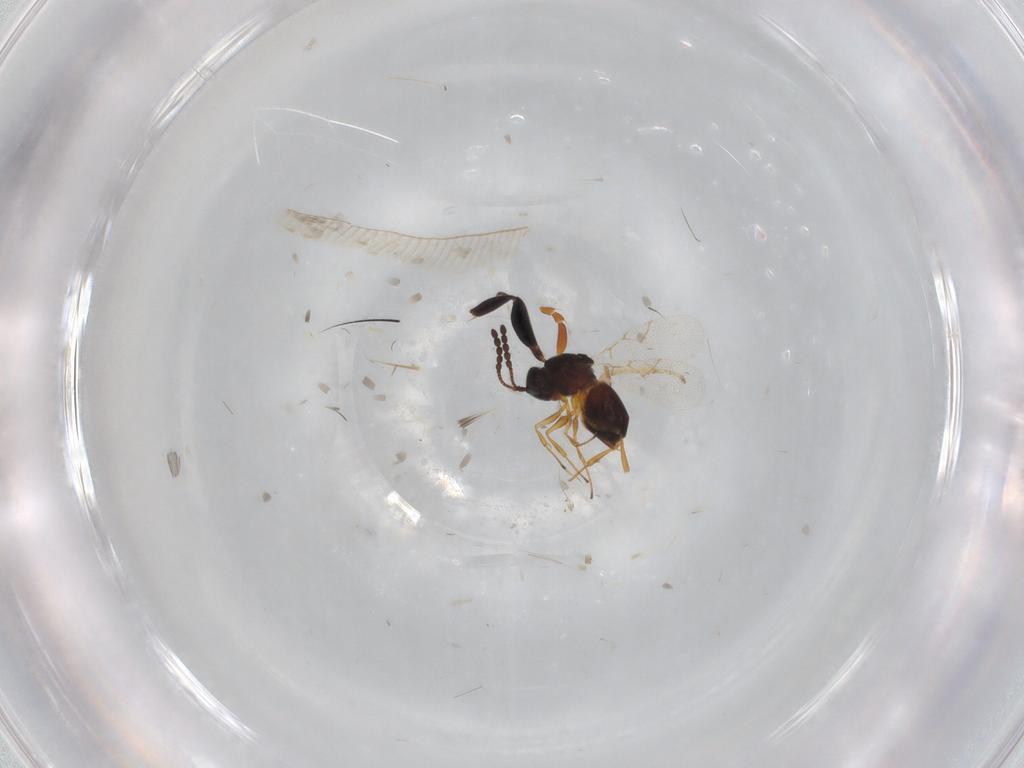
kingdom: Animalia
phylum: Arthropoda
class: Insecta
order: Hymenoptera
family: Figitidae
